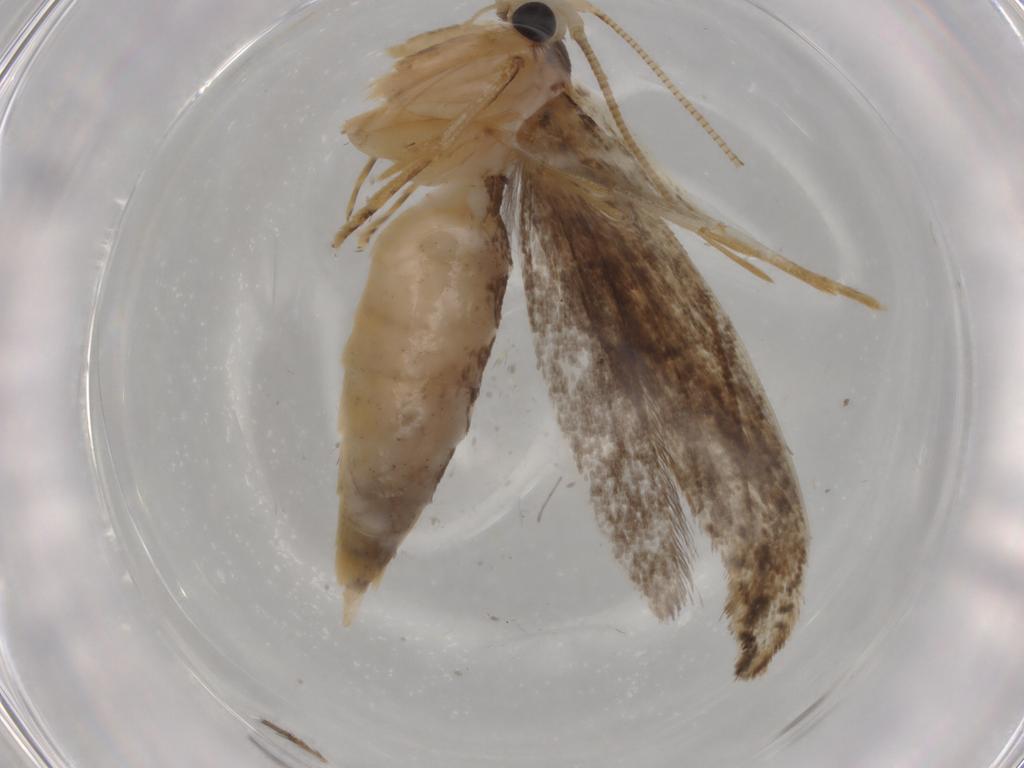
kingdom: Animalia
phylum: Arthropoda
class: Insecta
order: Lepidoptera
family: Nepticulidae
